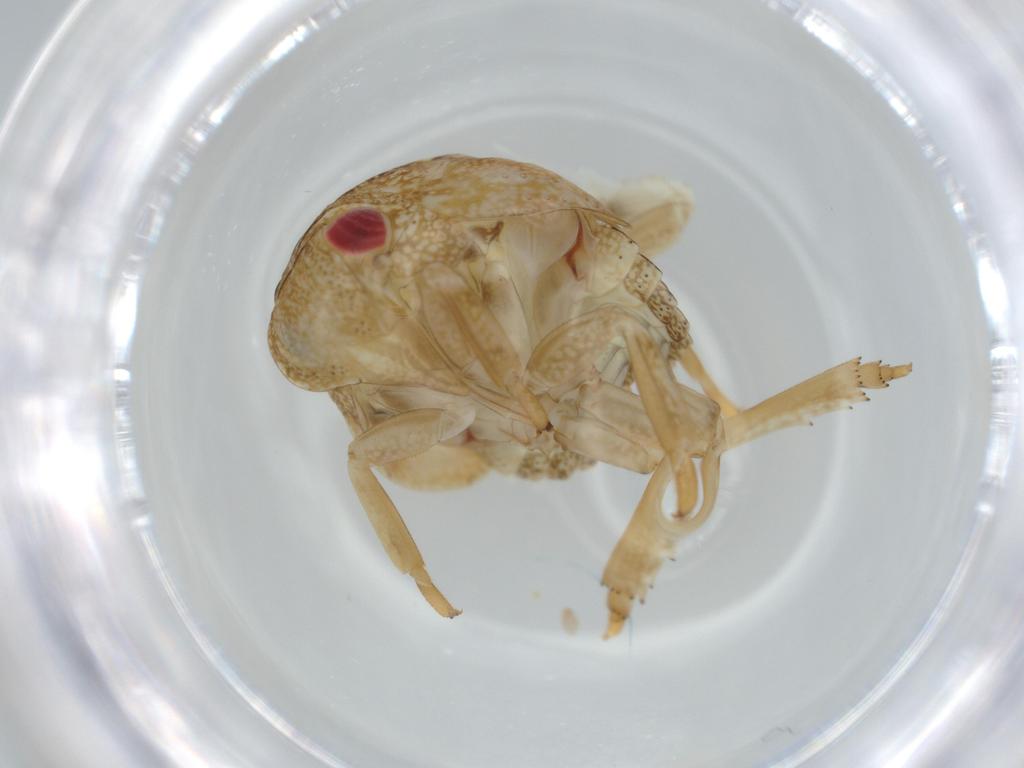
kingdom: Animalia
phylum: Arthropoda
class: Insecta
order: Hemiptera
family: Acanaloniidae
